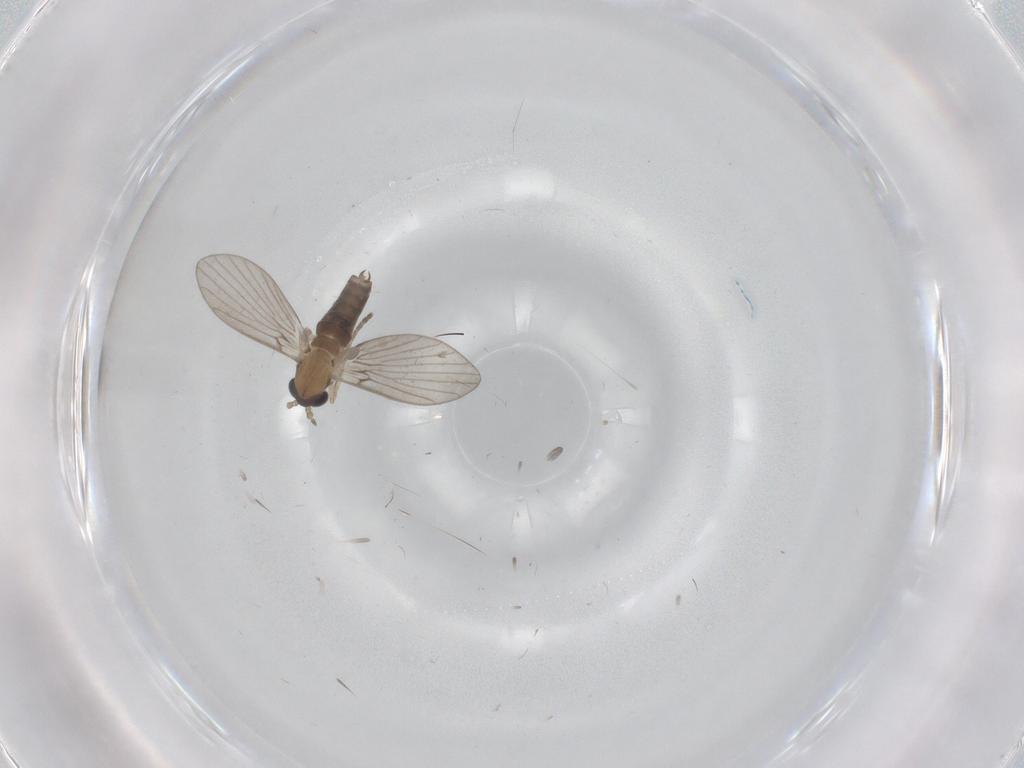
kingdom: Animalia
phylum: Arthropoda
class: Insecta
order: Diptera
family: Psychodidae
